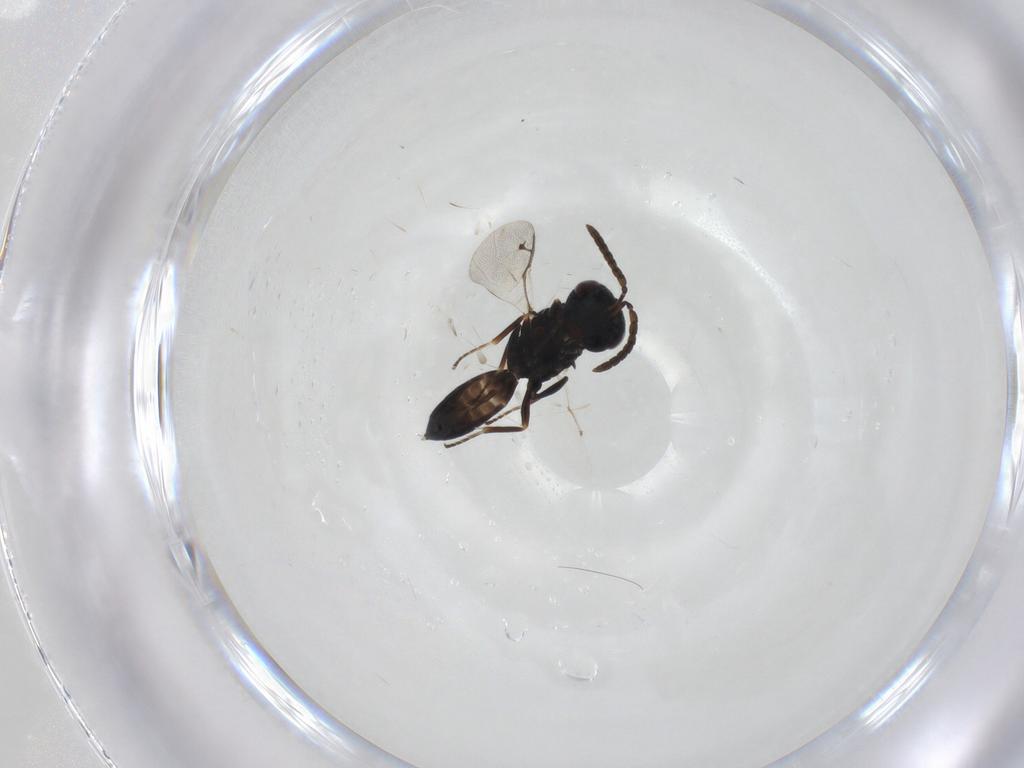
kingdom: Animalia
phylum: Arthropoda
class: Insecta
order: Hymenoptera
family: Pteromalidae
